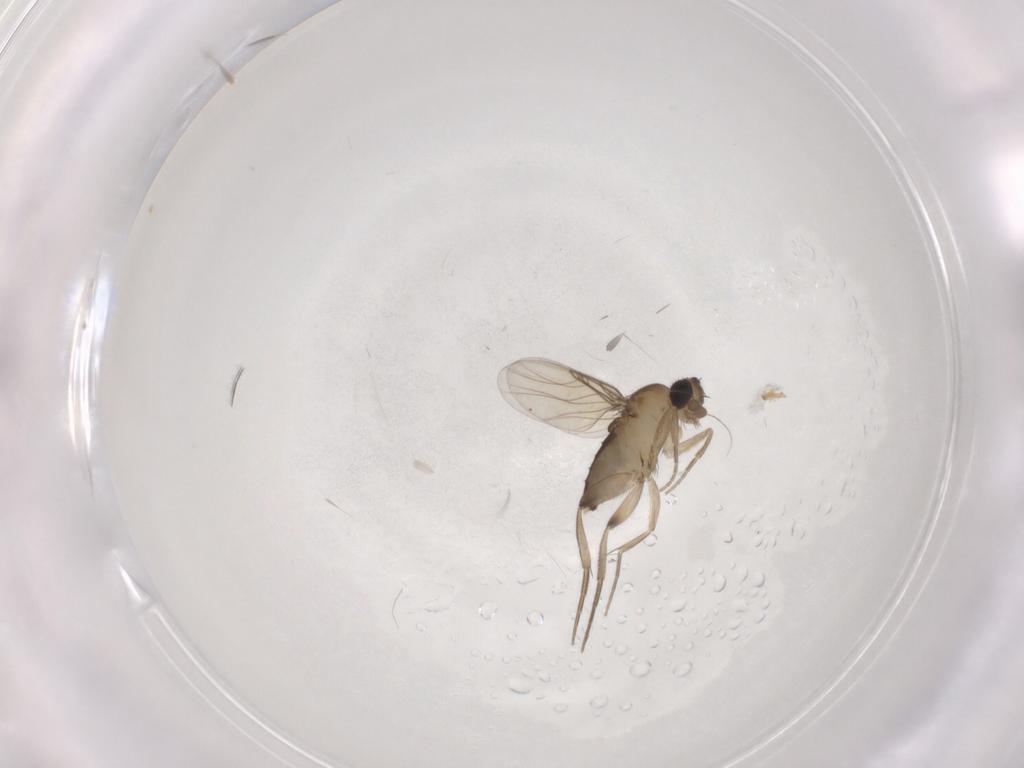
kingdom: Animalia
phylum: Arthropoda
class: Insecta
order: Diptera
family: Phoridae
